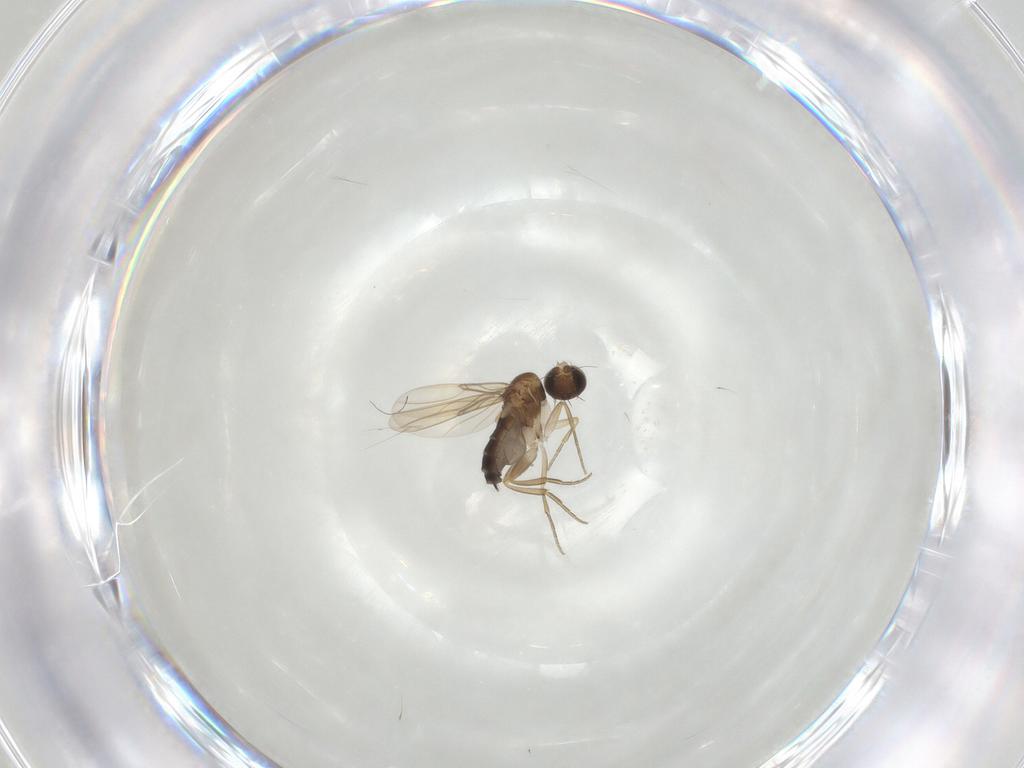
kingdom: Animalia
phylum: Arthropoda
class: Insecta
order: Diptera
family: Phoridae
